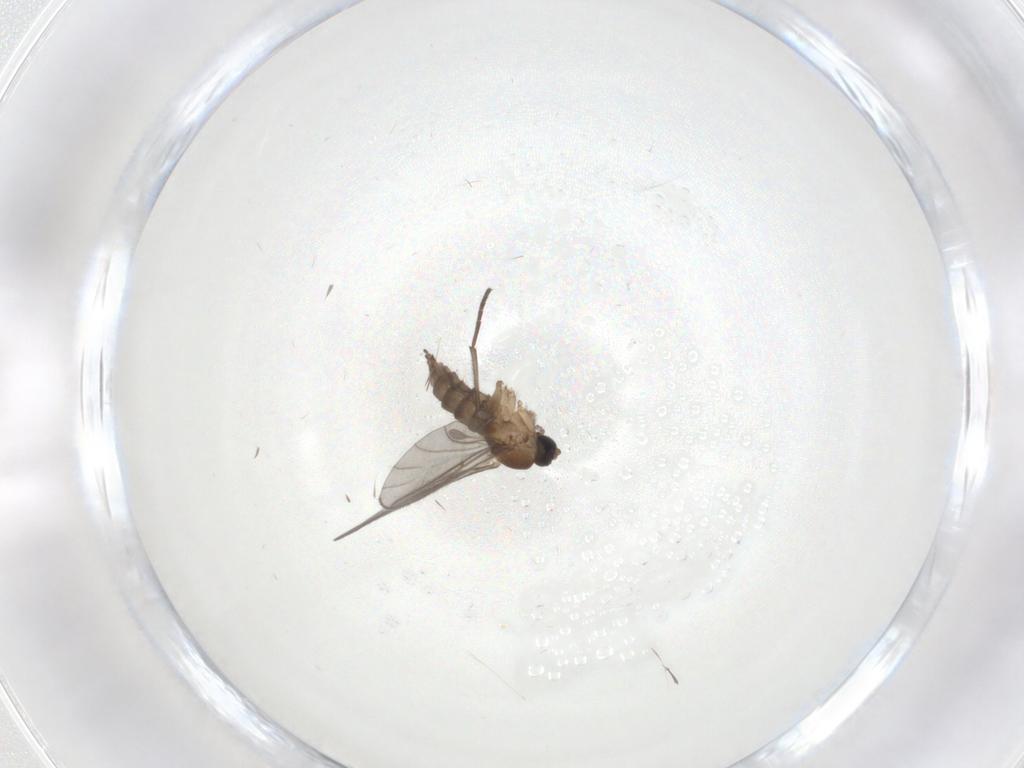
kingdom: Animalia
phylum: Arthropoda
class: Insecta
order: Diptera
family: Sciaridae
